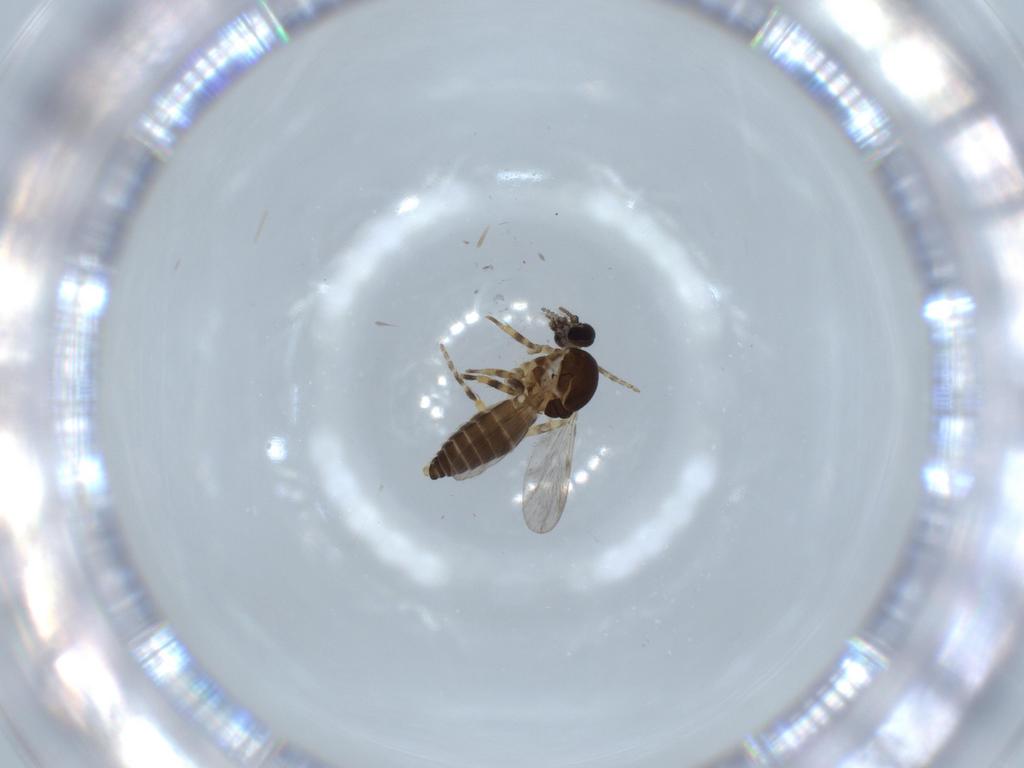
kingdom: Animalia
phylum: Arthropoda
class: Insecta
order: Diptera
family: Ceratopogonidae
